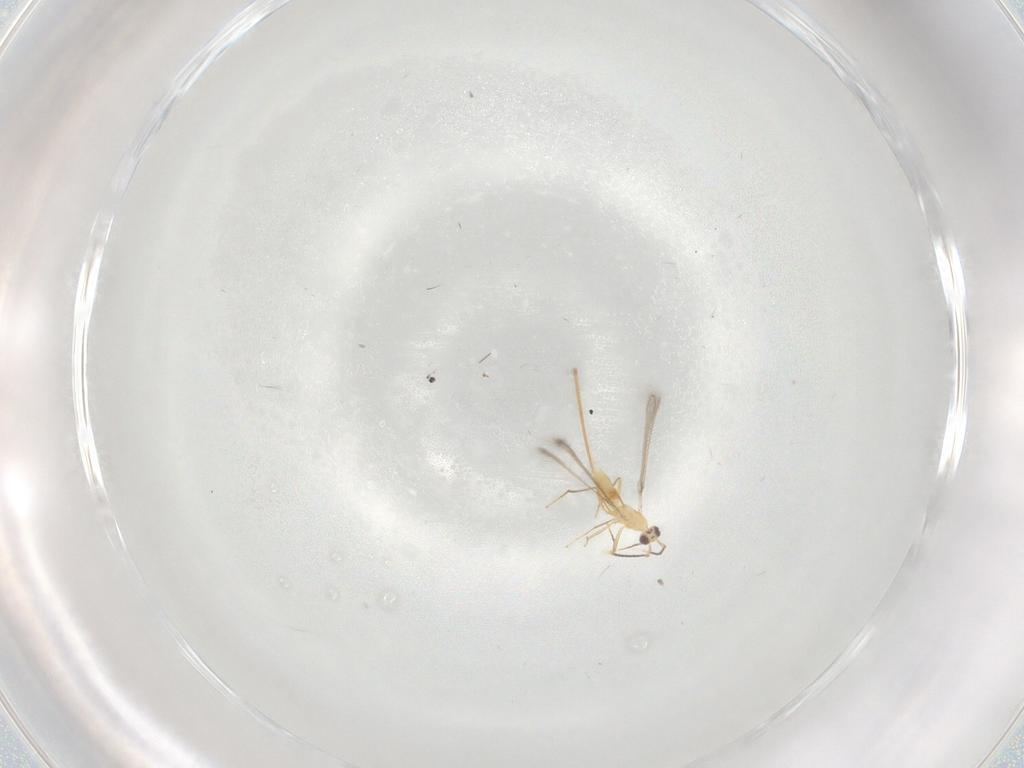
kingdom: Animalia
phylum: Arthropoda
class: Insecta
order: Hymenoptera
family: Mymaridae
